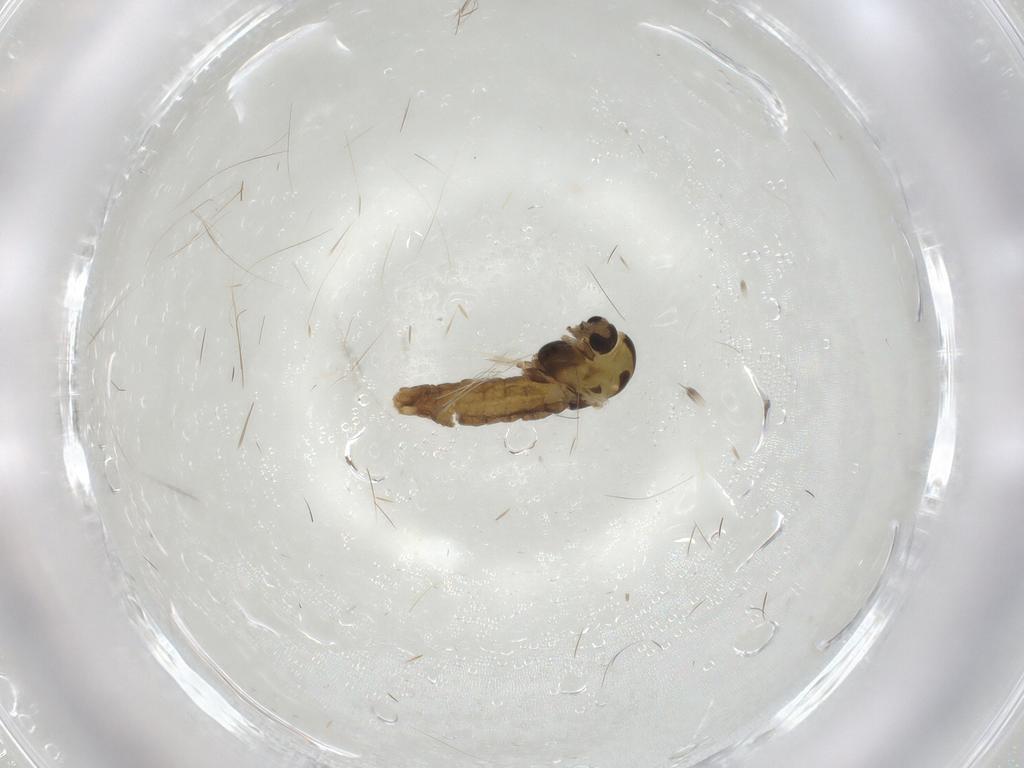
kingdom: Animalia
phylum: Arthropoda
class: Insecta
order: Diptera
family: Chironomidae
